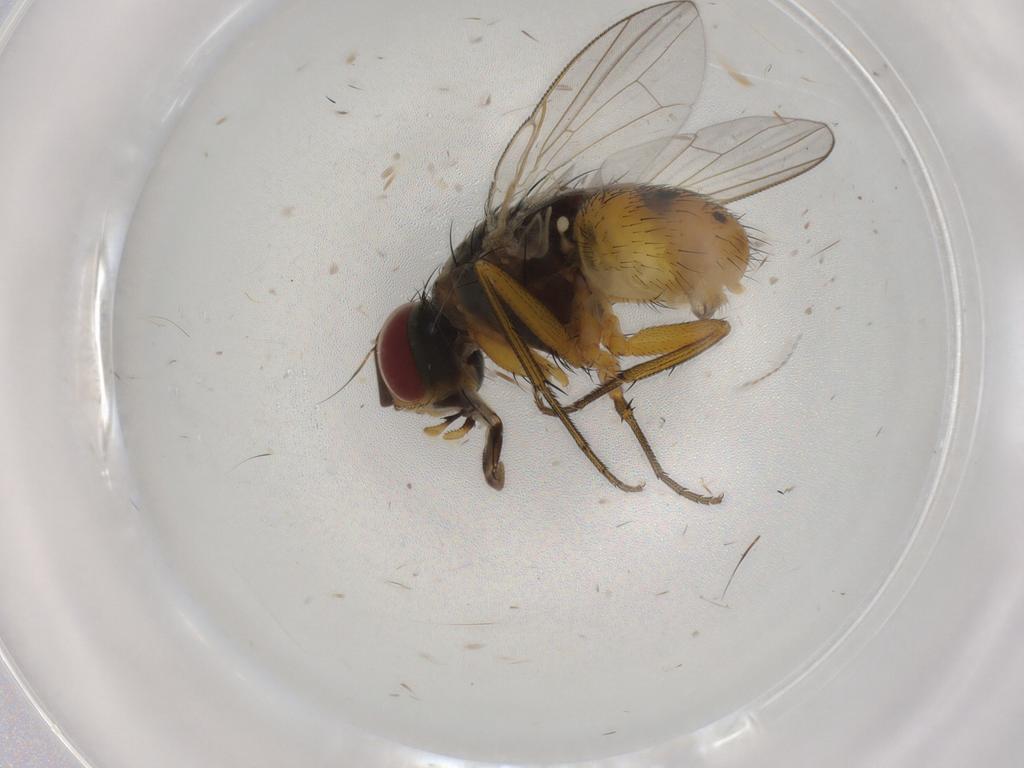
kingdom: Animalia
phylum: Arthropoda
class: Insecta
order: Diptera
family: Muscidae
